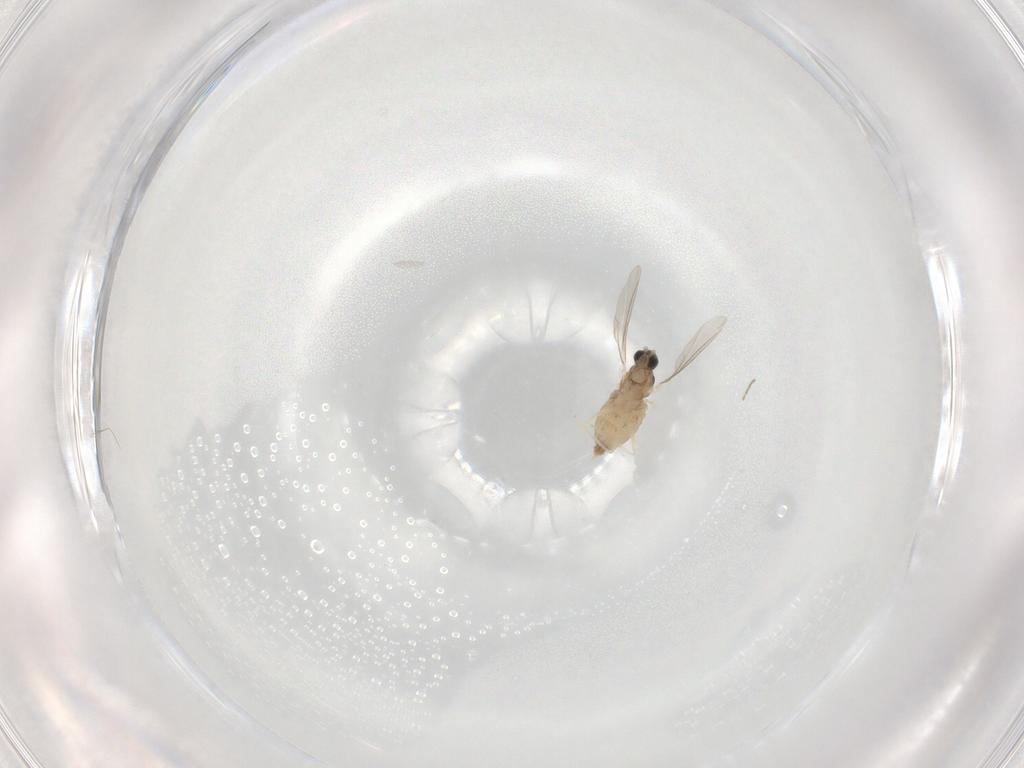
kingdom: Animalia
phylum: Arthropoda
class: Insecta
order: Diptera
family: Cecidomyiidae
